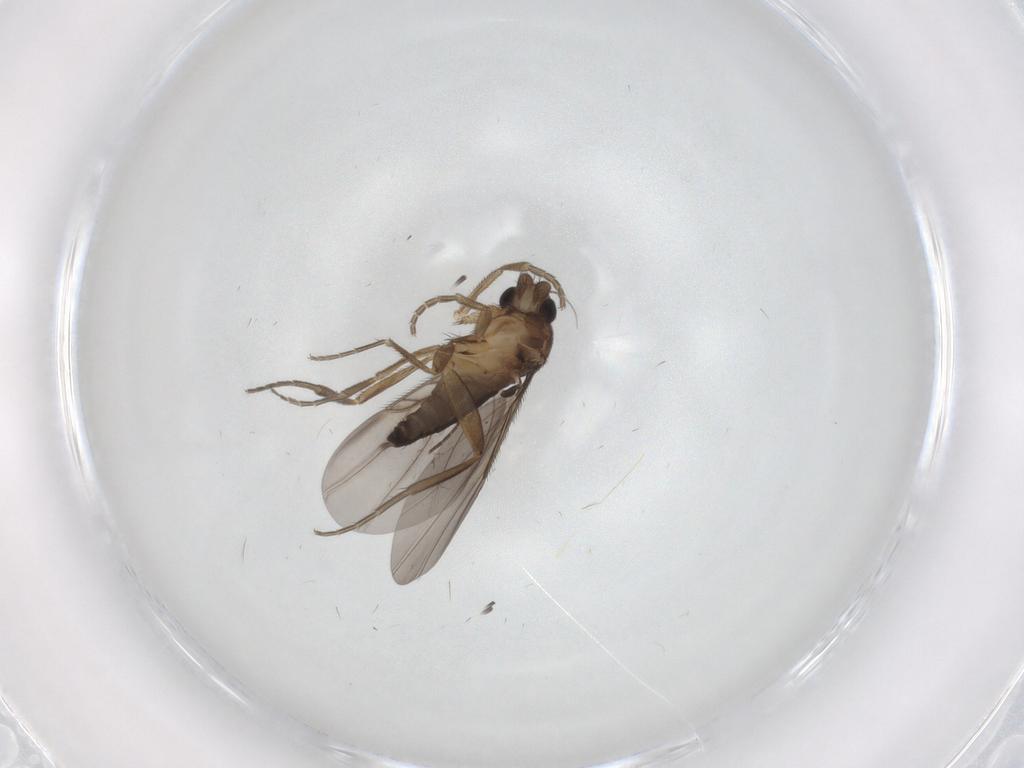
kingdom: Animalia
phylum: Arthropoda
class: Insecta
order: Diptera
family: Phoridae
